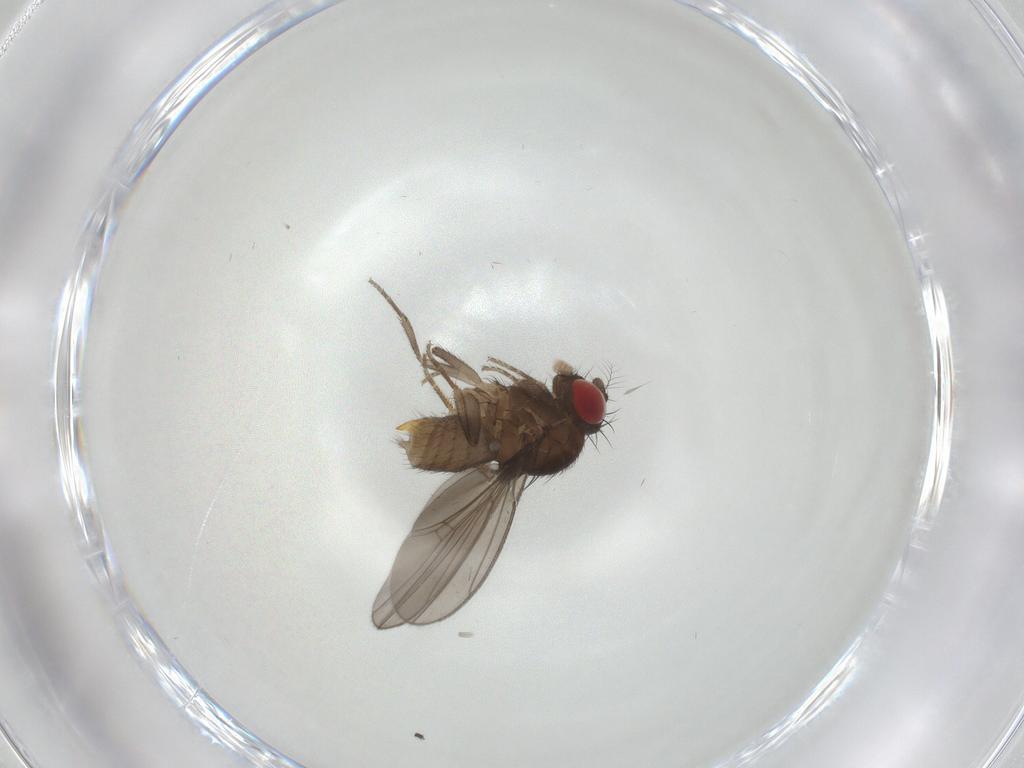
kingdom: Animalia
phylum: Arthropoda
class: Insecta
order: Diptera
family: Drosophilidae
